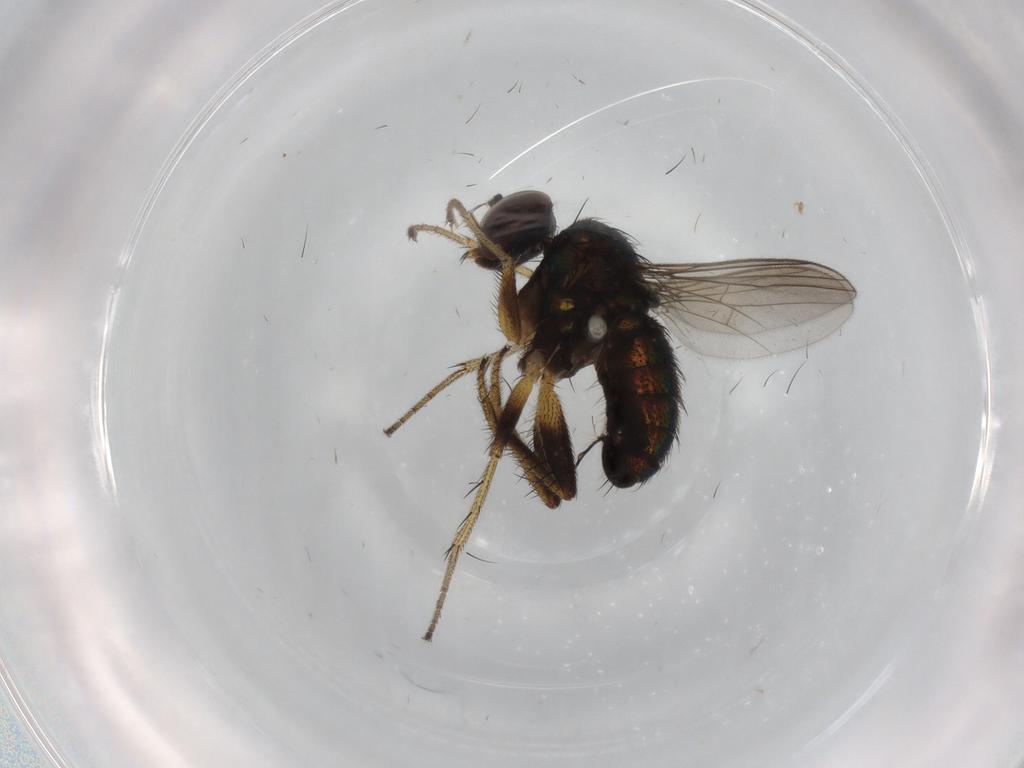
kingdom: Animalia
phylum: Arthropoda
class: Insecta
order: Diptera
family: Dolichopodidae
